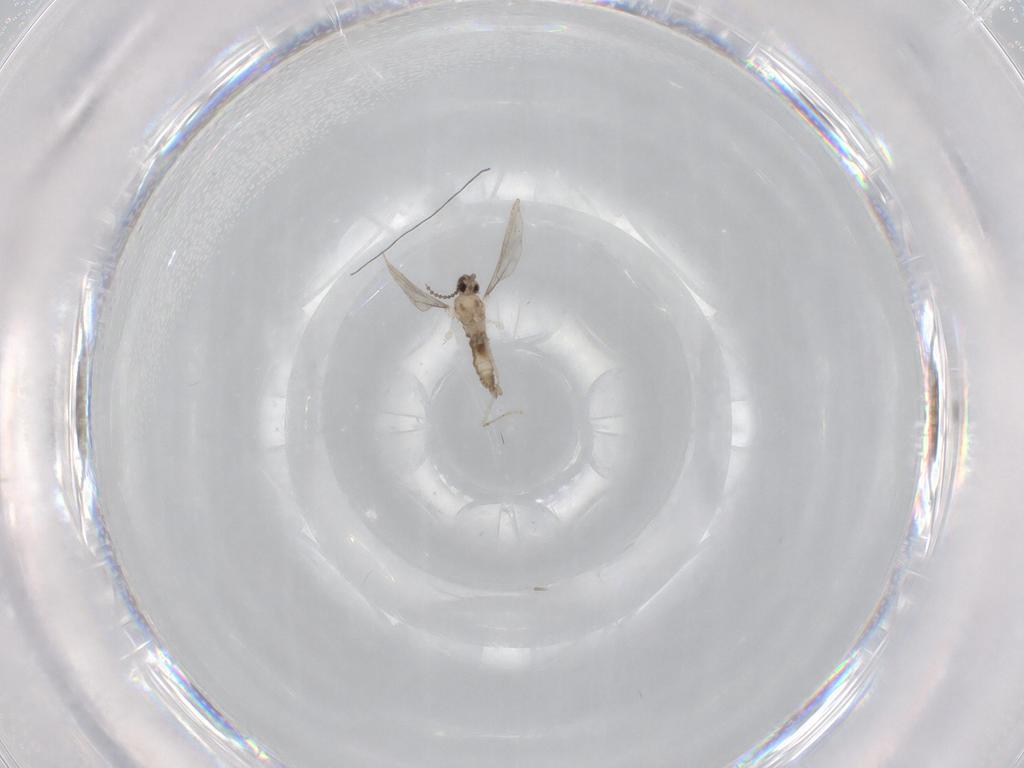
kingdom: Animalia
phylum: Arthropoda
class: Insecta
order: Diptera
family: Cecidomyiidae
